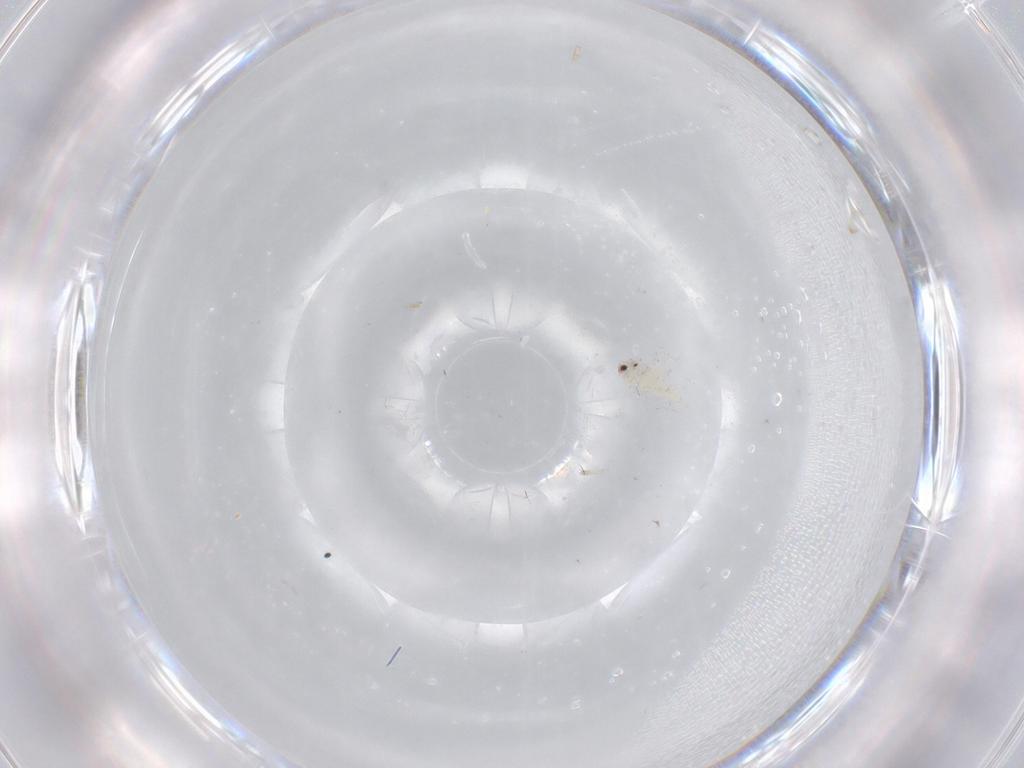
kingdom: Animalia
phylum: Arthropoda
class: Insecta
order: Hemiptera
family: Aleyrodidae
